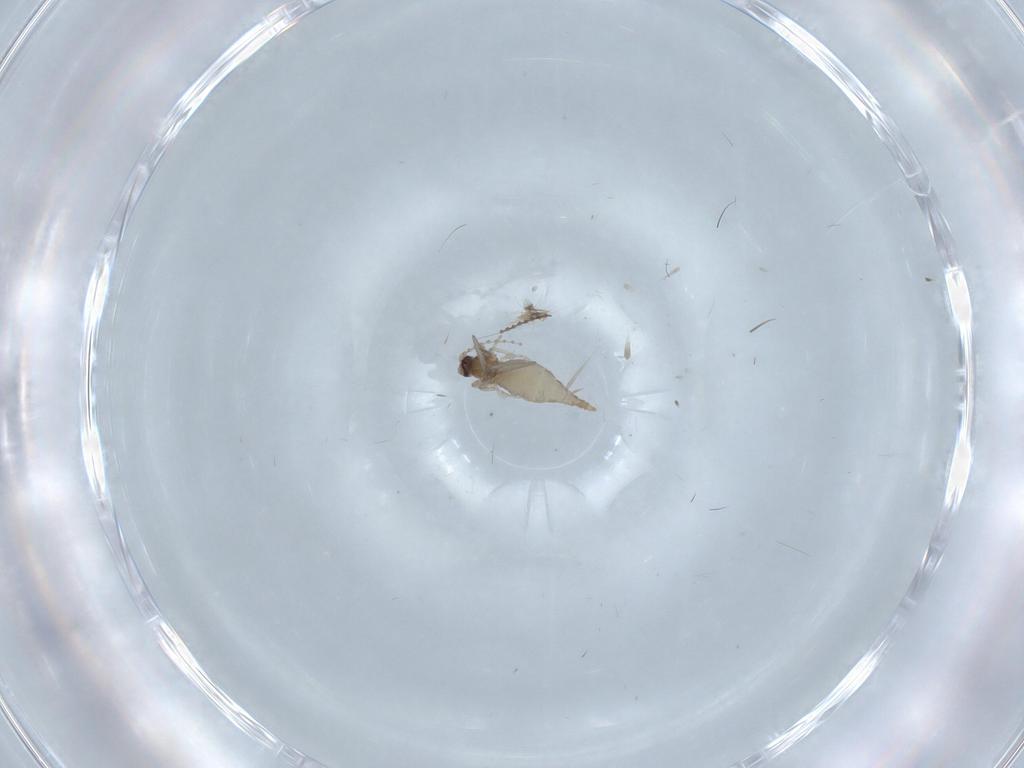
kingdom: Animalia
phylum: Arthropoda
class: Insecta
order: Diptera
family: Cecidomyiidae
